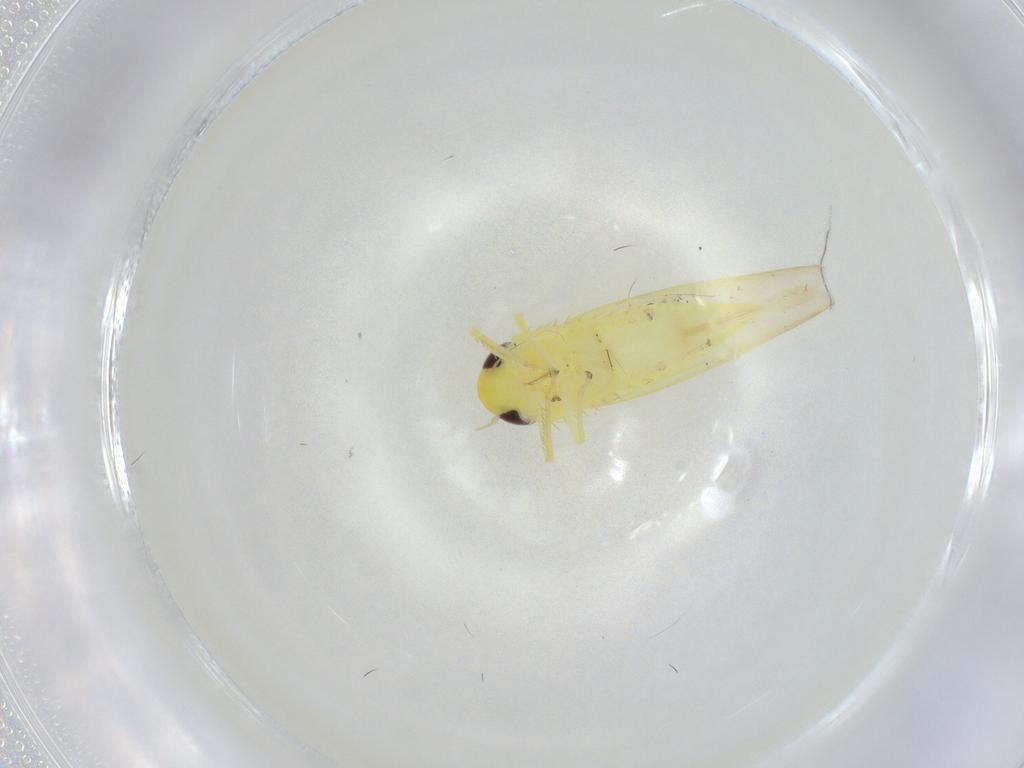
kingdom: Animalia
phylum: Arthropoda
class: Insecta
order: Hemiptera
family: Cicadellidae
